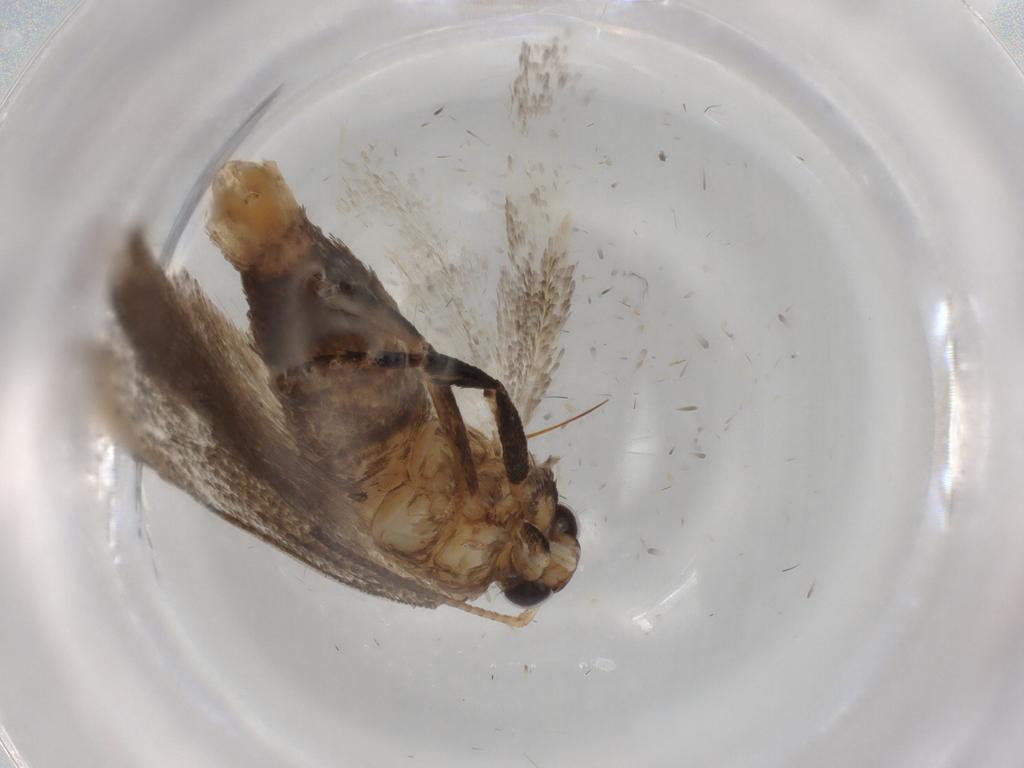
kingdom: Animalia
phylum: Arthropoda
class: Insecta
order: Lepidoptera
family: Gelechiidae
